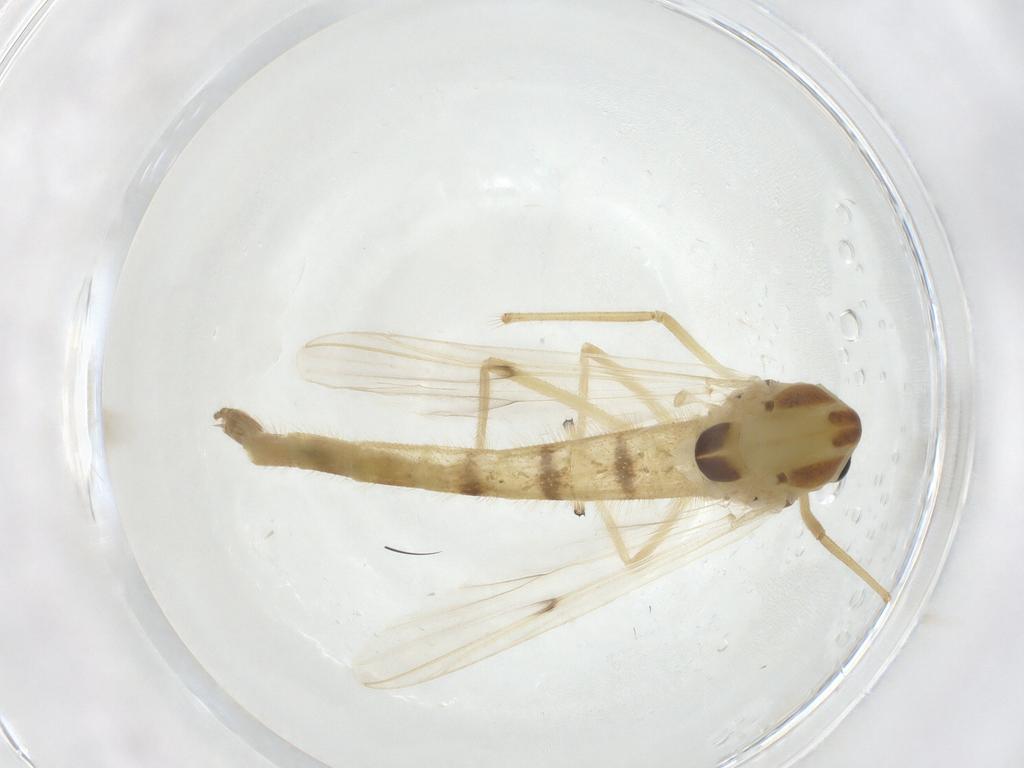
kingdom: Animalia
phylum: Arthropoda
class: Insecta
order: Diptera
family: Chironomidae
